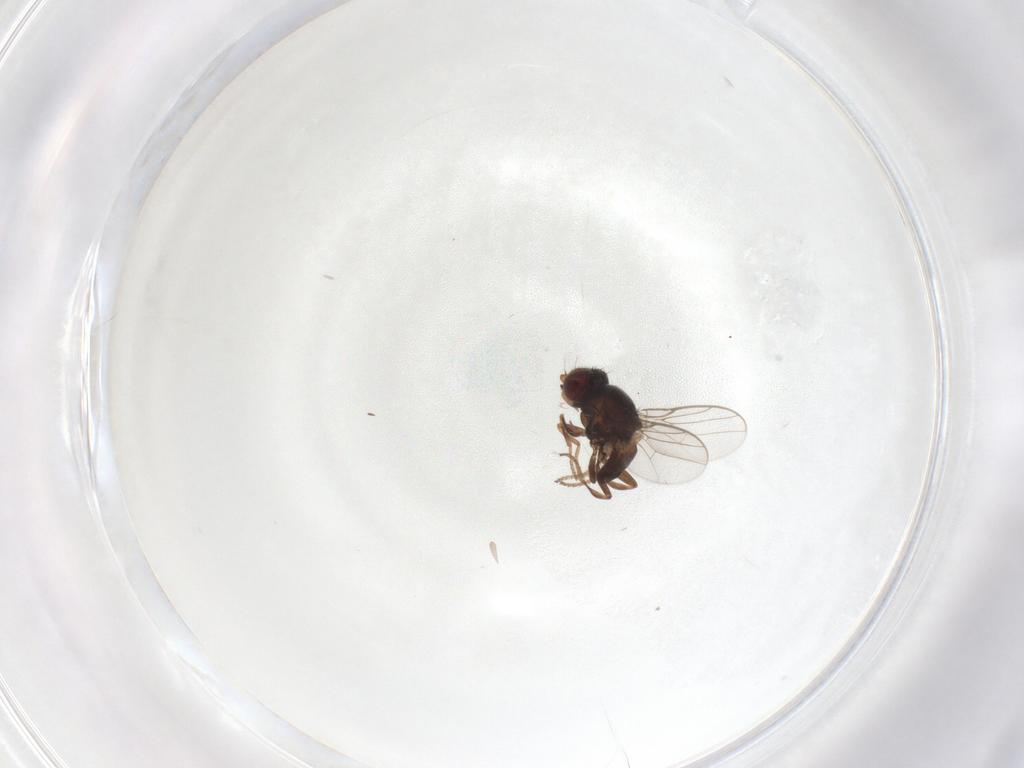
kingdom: Animalia
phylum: Arthropoda
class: Insecta
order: Diptera
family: Chloropidae
